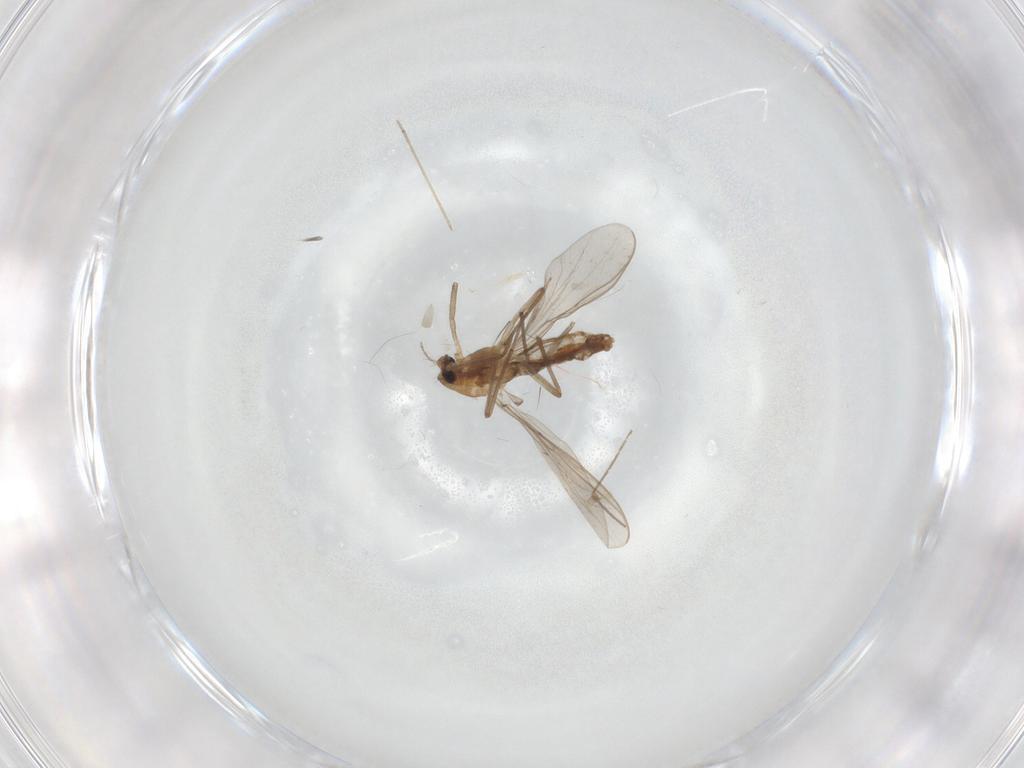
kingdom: Animalia
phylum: Arthropoda
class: Insecta
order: Diptera
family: Chironomidae
